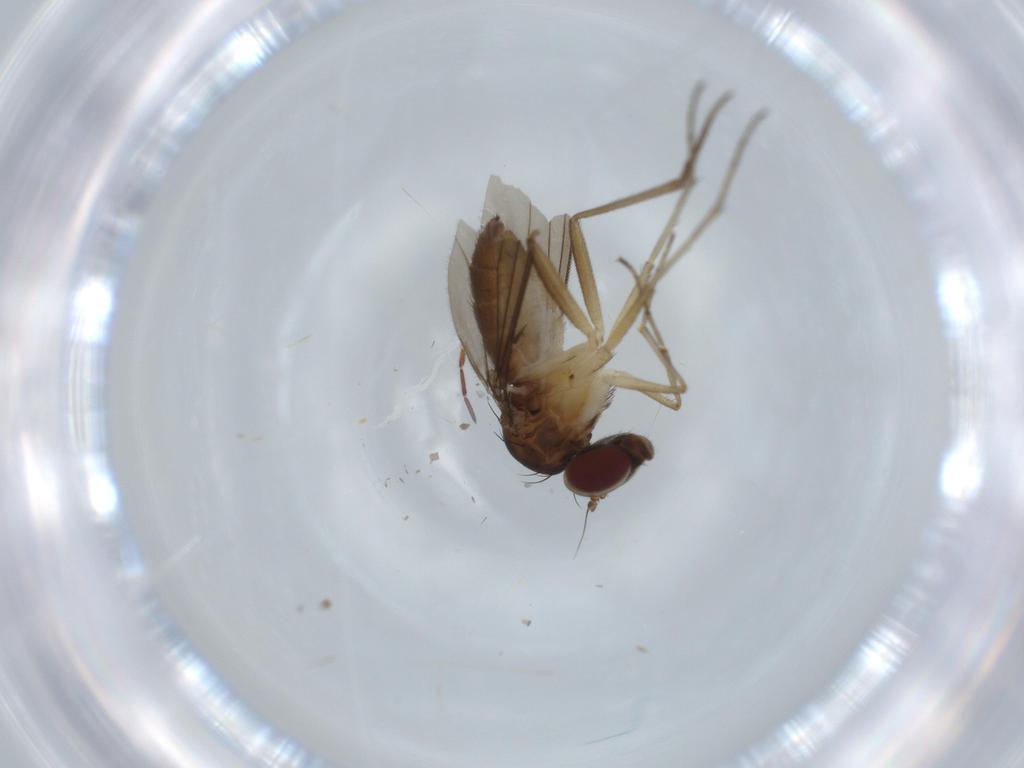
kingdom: Animalia
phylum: Arthropoda
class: Insecta
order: Diptera
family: Dolichopodidae
